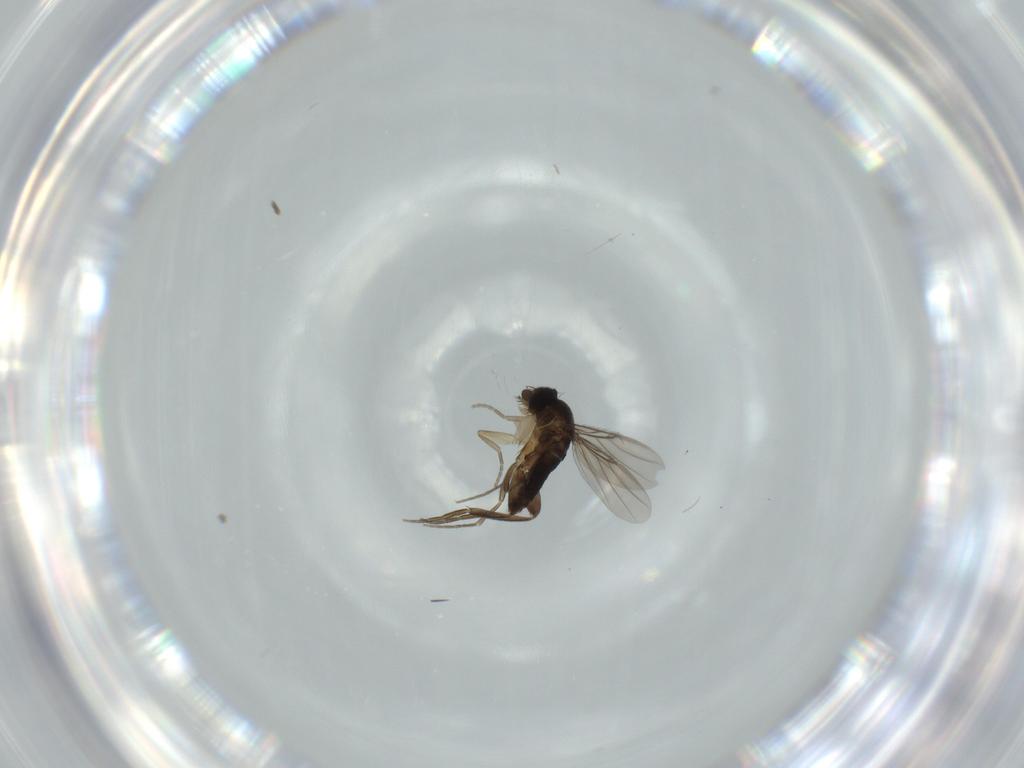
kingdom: Animalia
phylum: Arthropoda
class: Insecta
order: Diptera
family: Phoridae
